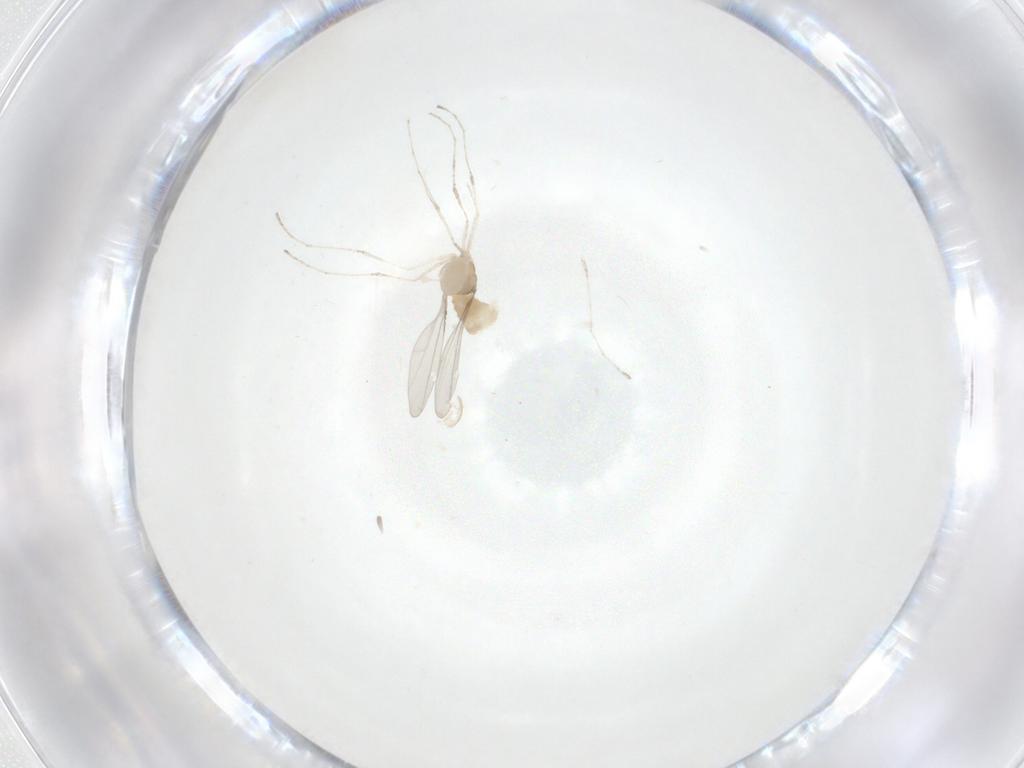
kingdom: Animalia
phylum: Arthropoda
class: Insecta
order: Diptera
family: Cecidomyiidae
